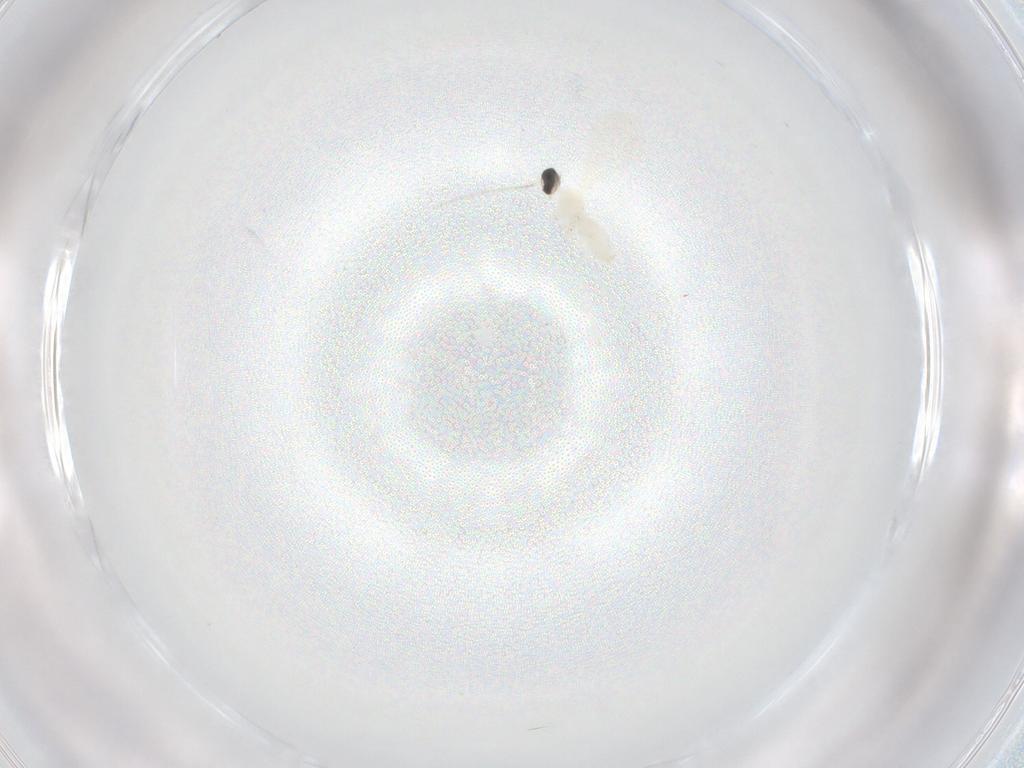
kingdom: Animalia
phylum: Arthropoda
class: Insecta
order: Diptera
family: Cecidomyiidae
